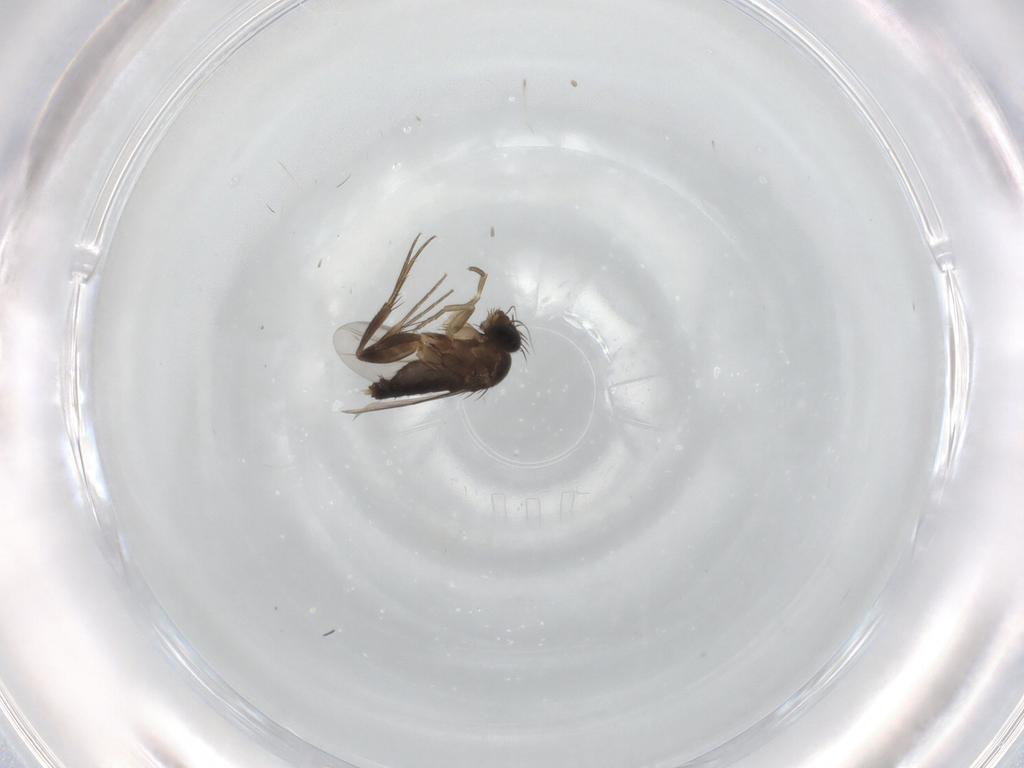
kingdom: Animalia
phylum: Arthropoda
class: Insecta
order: Diptera
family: Phoridae
